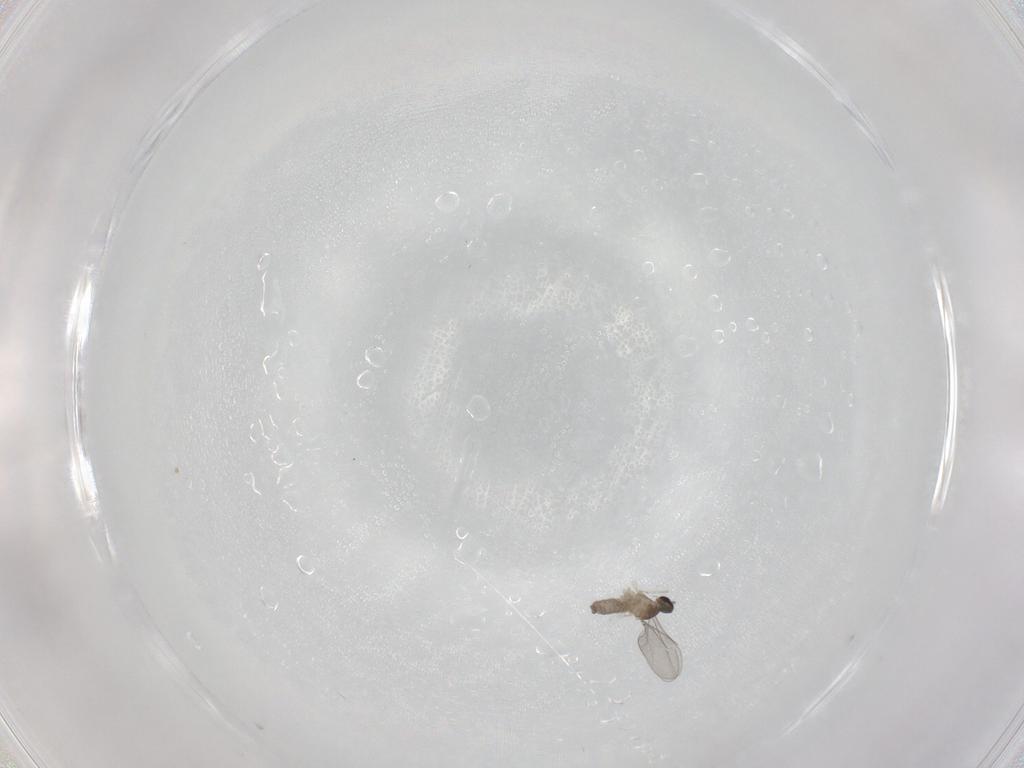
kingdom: Animalia
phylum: Arthropoda
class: Insecta
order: Diptera
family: Cecidomyiidae
